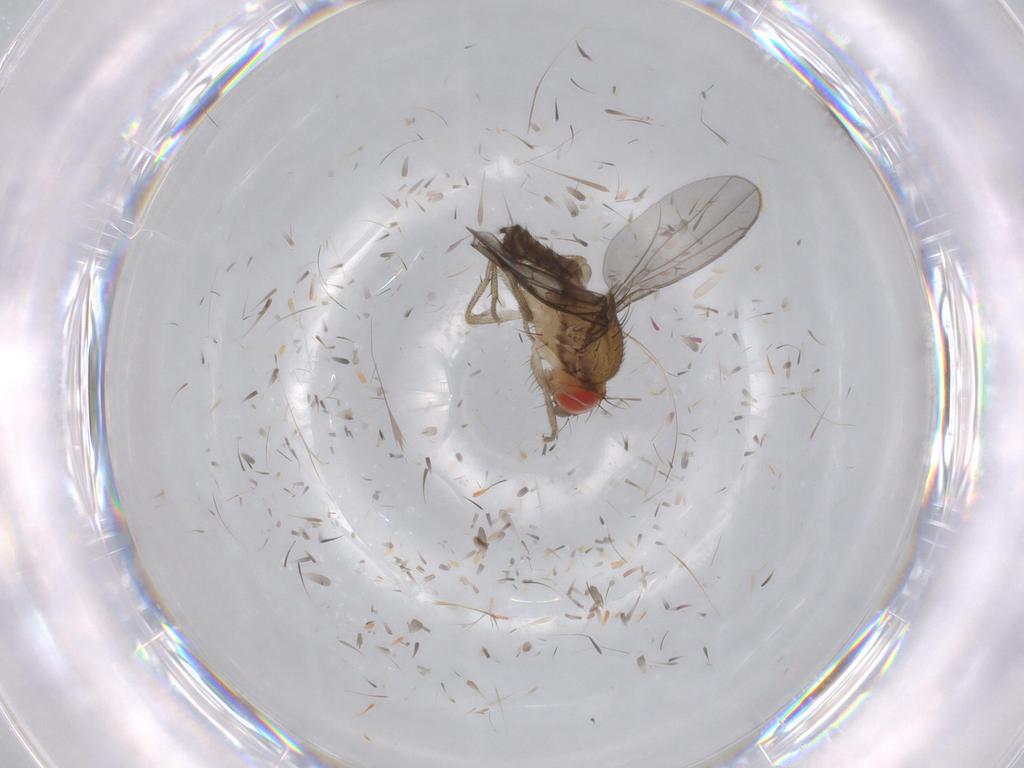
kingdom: Animalia
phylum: Arthropoda
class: Insecta
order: Diptera
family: Drosophilidae
